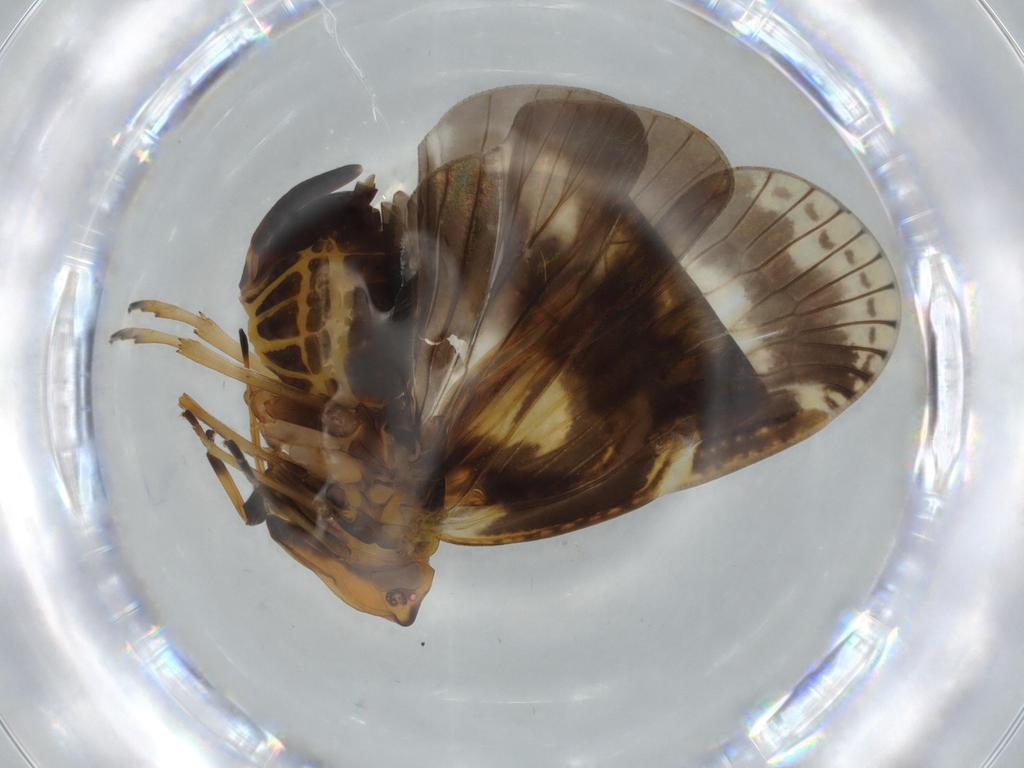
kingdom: Animalia
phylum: Arthropoda
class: Insecta
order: Hemiptera
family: Cixiidae
